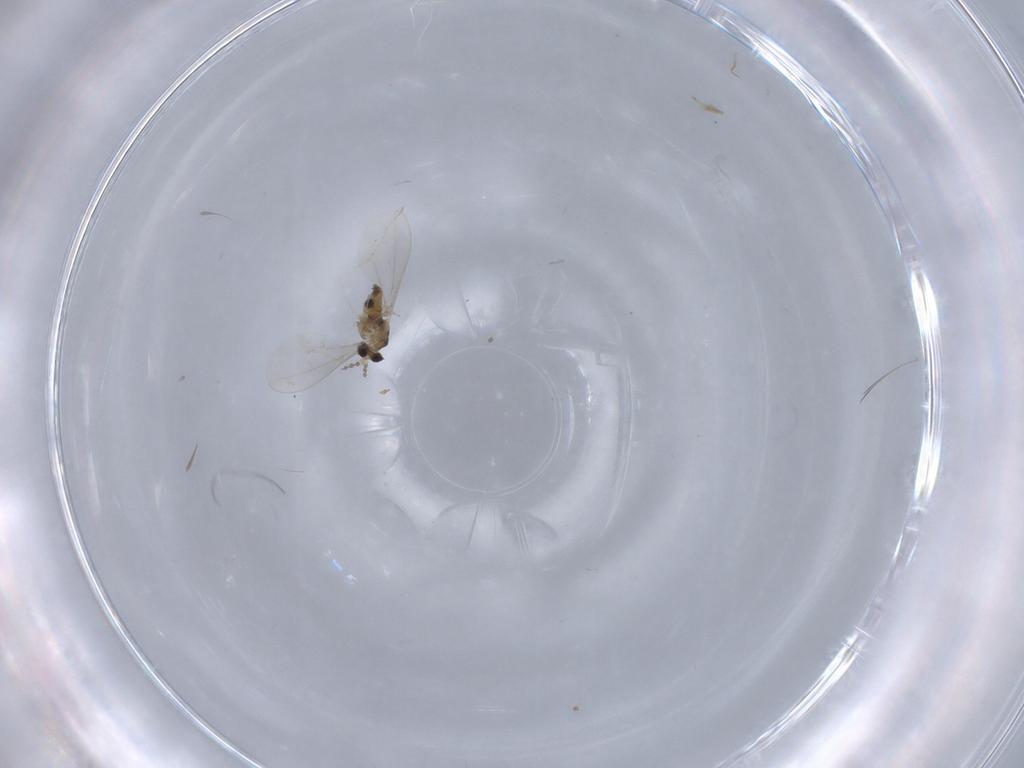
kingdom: Animalia
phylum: Arthropoda
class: Insecta
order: Diptera
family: Cecidomyiidae
